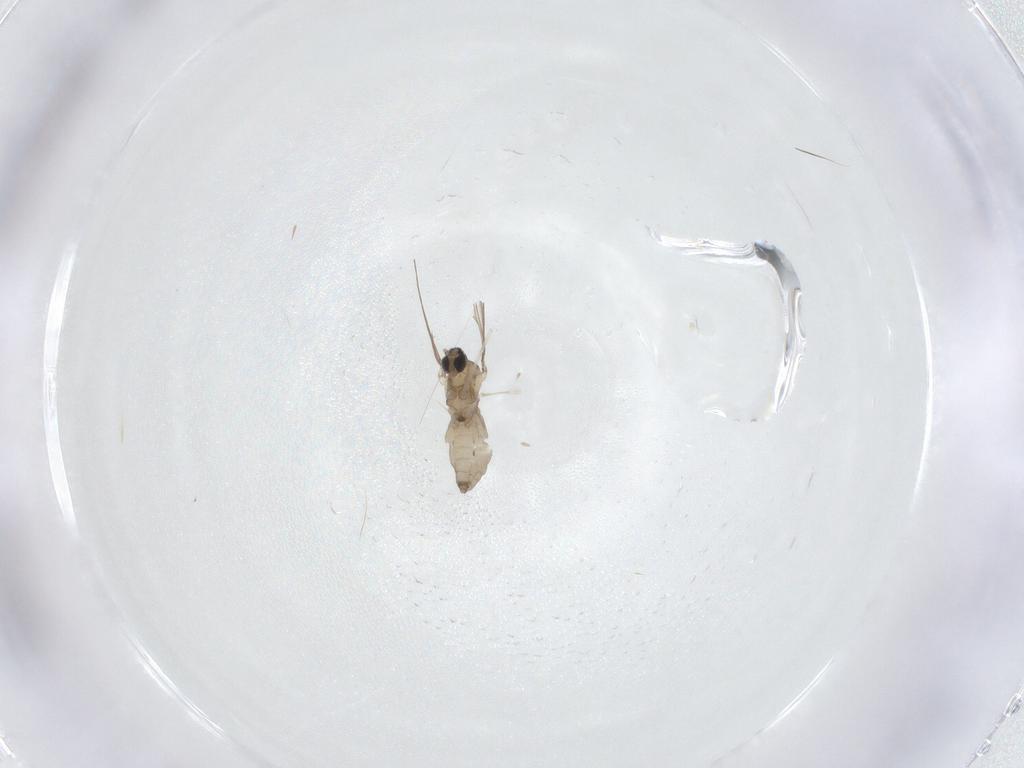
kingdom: Animalia
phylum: Arthropoda
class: Insecta
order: Diptera
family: Cecidomyiidae
